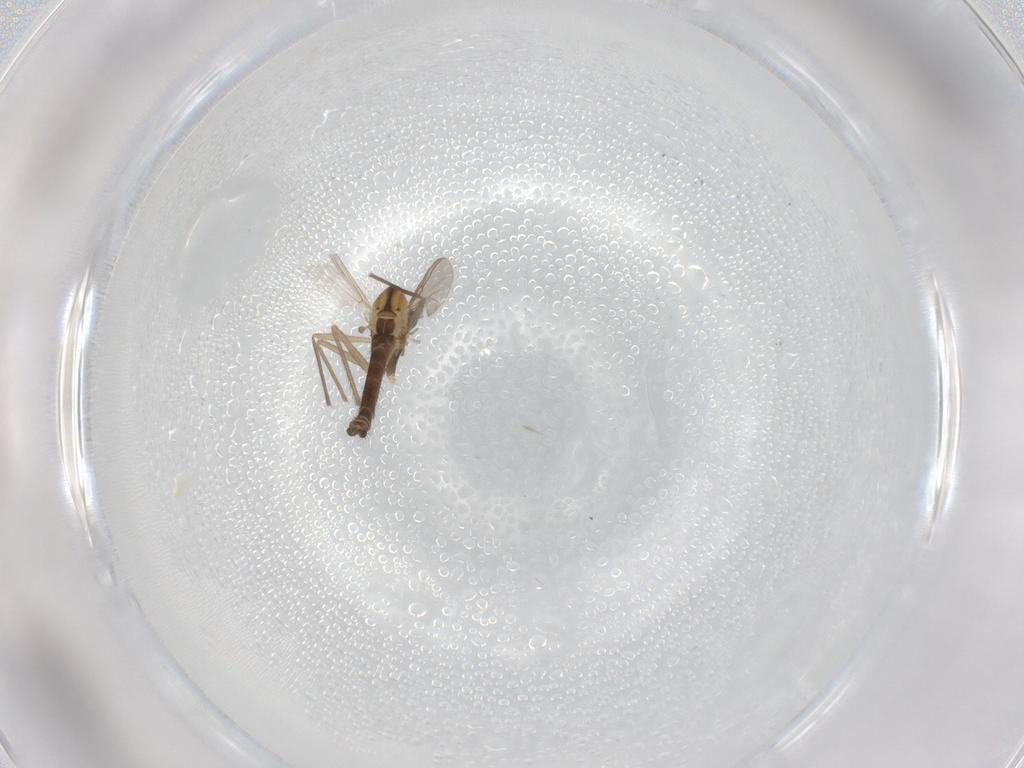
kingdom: Animalia
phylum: Arthropoda
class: Insecta
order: Diptera
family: Chironomidae
